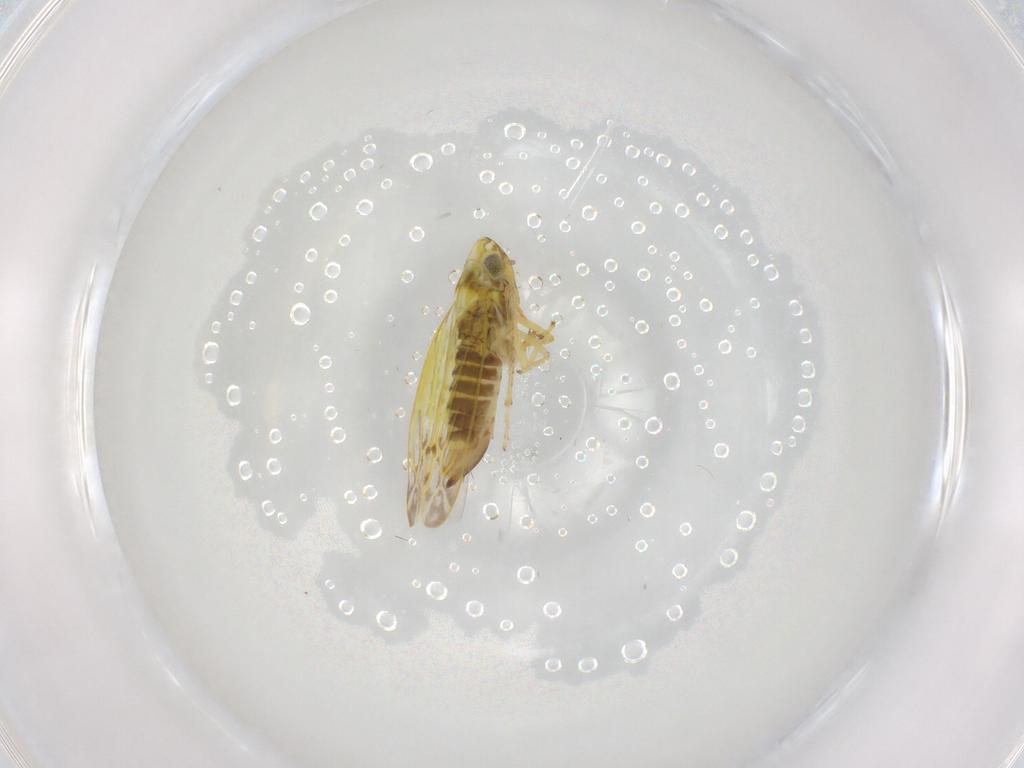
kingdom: Animalia
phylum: Arthropoda
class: Insecta
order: Hemiptera
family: Cicadellidae
